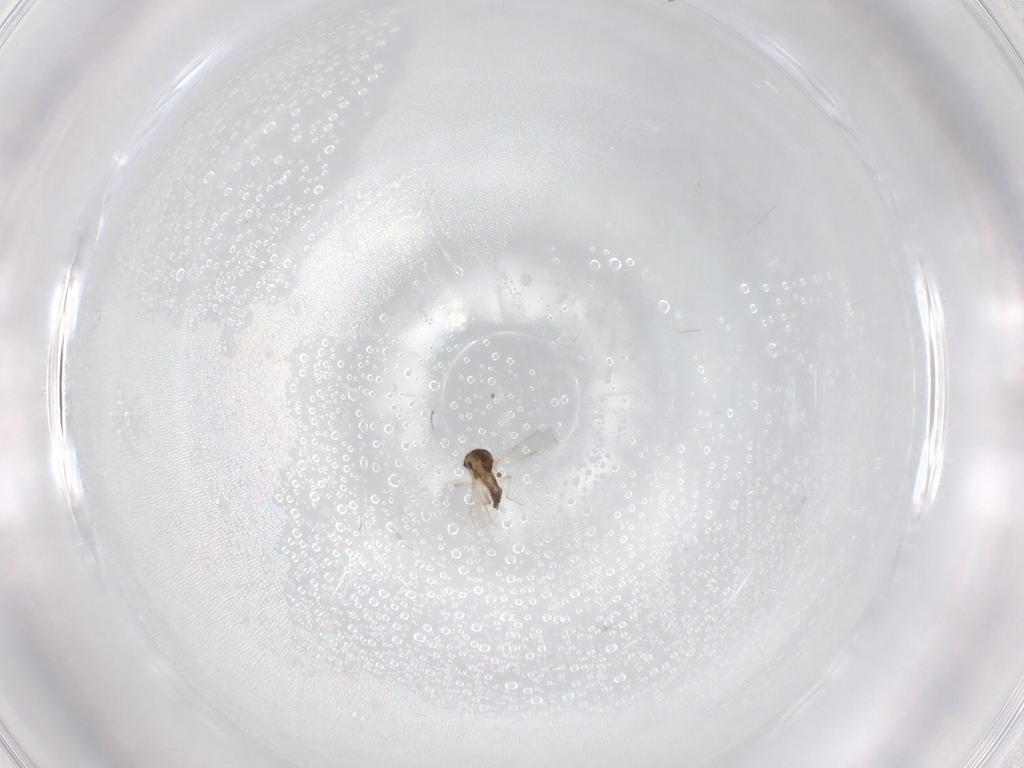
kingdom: Animalia
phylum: Arthropoda
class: Insecta
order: Diptera
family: Ceratopogonidae
